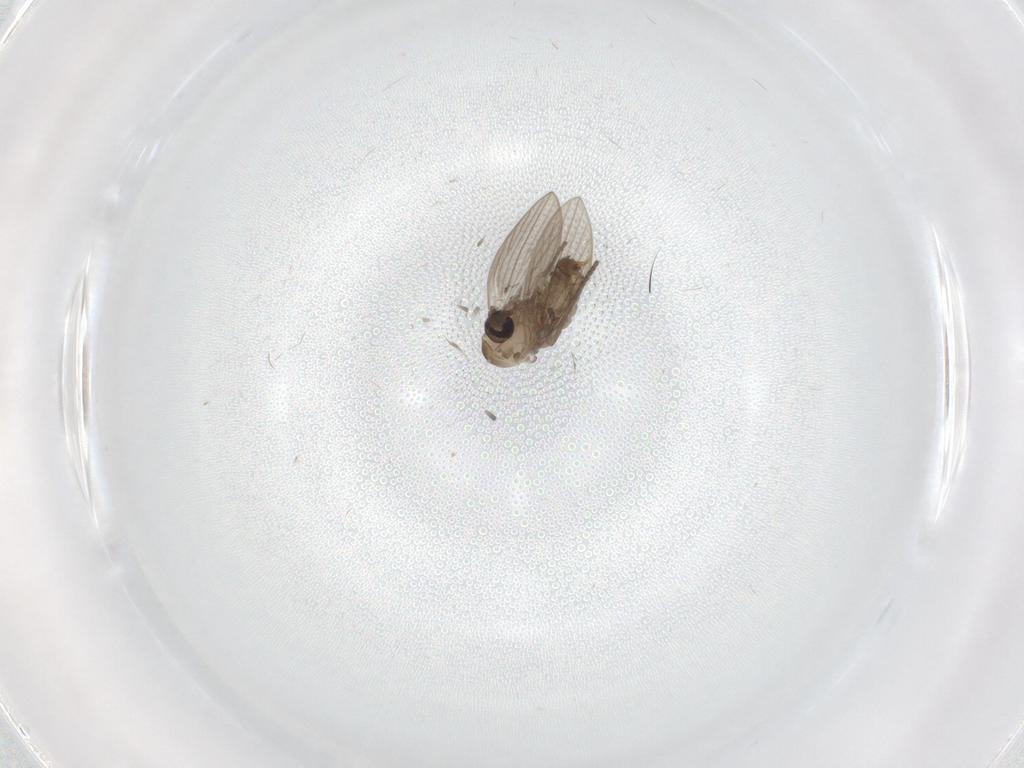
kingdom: Animalia
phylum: Arthropoda
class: Insecta
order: Diptera
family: Psychodidae
